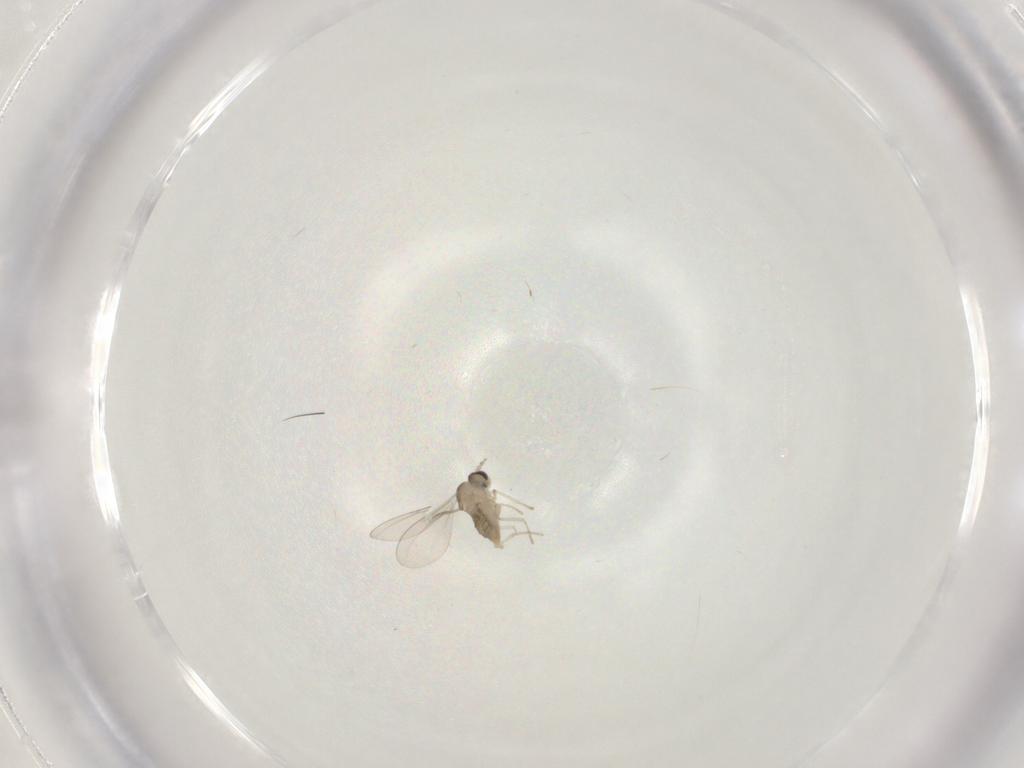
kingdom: Animalia
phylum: Arthropoda
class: Insecta
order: Diptera
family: Cecidomyiidae
